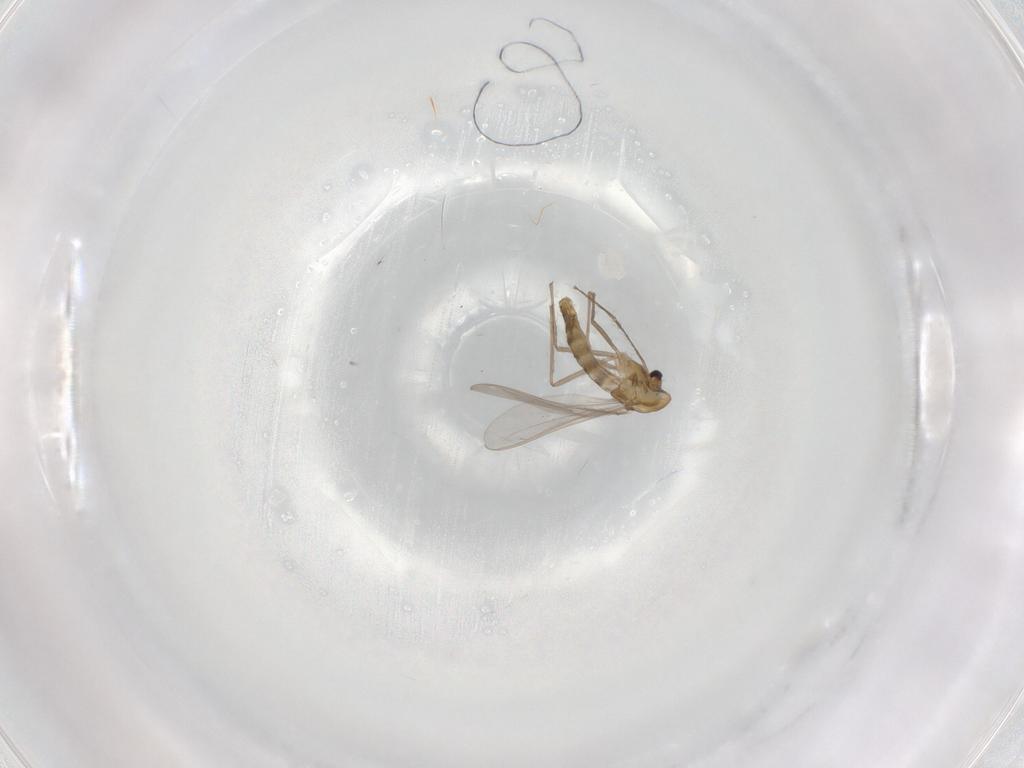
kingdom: Animalia
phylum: Arthropoda
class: Insecta
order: Diptera
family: Chironomidae
